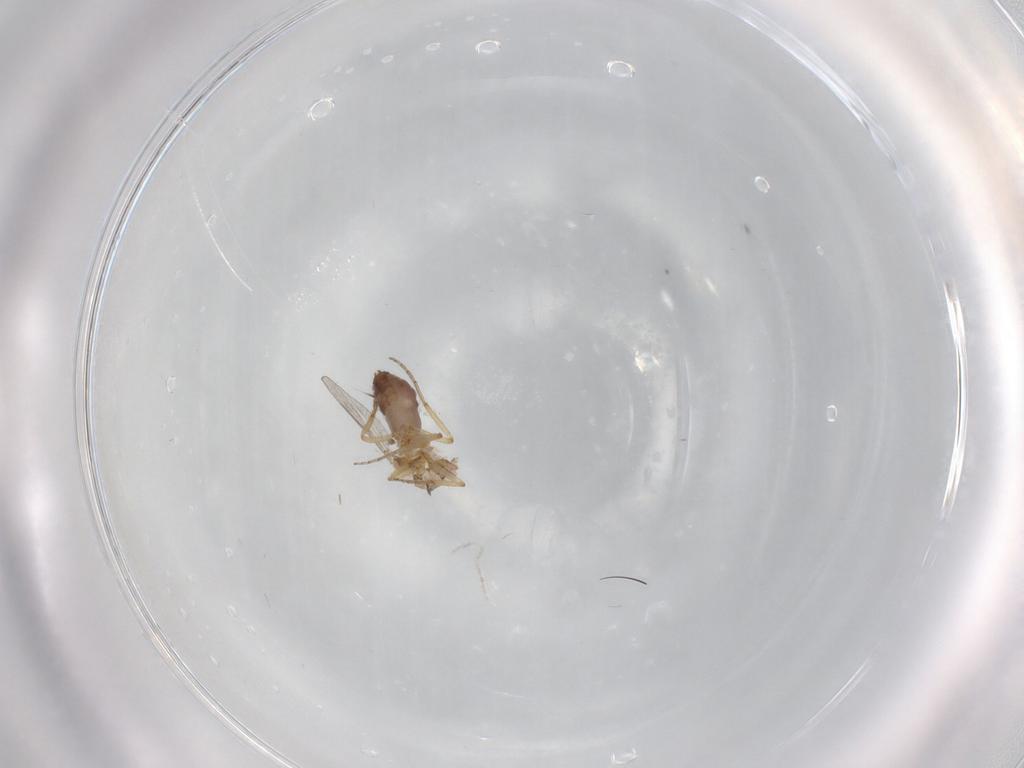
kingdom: Animalia
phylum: Arthropoda
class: Insecta
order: Diptera
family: Ceratopogonidae
